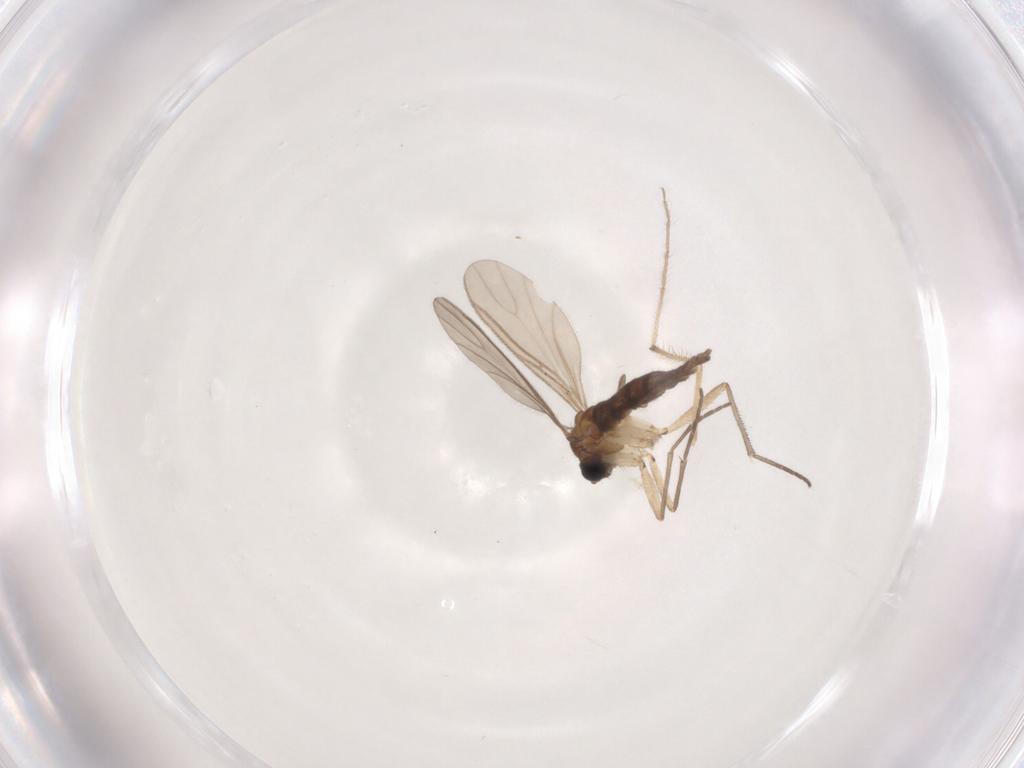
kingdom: Animalia
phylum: Arthropoda
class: Insecta
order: Diptera
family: Sciaridae
